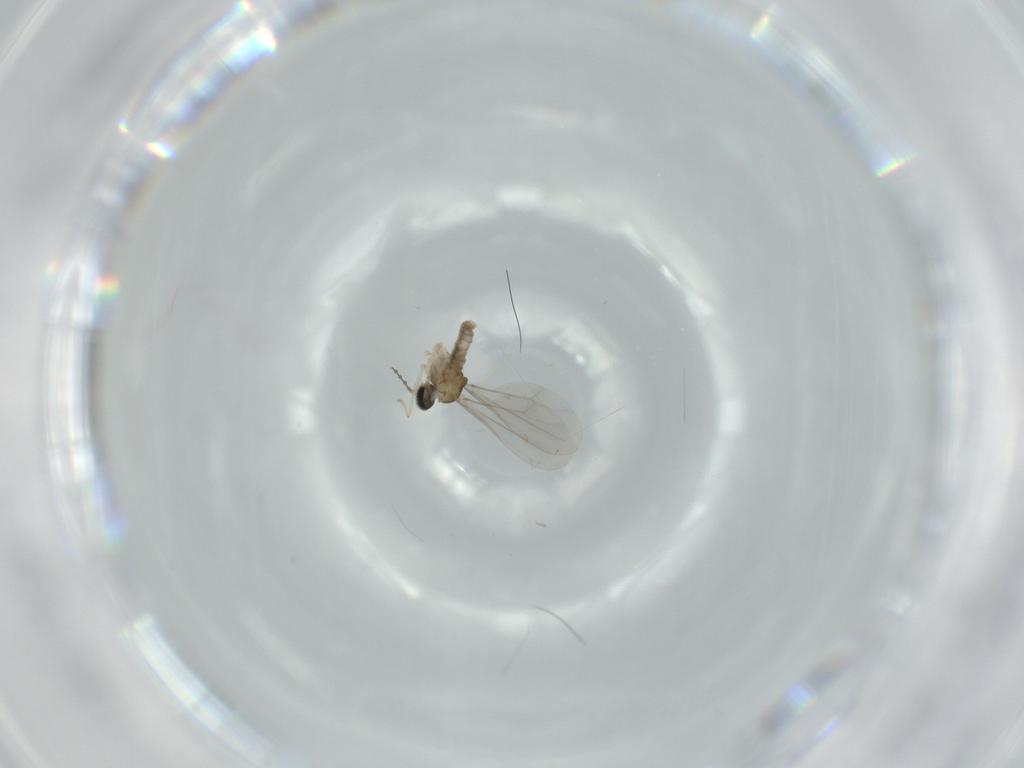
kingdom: Animalia
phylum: Arthropoda
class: Insecta
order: Diptera
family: Cecidomyiidae
